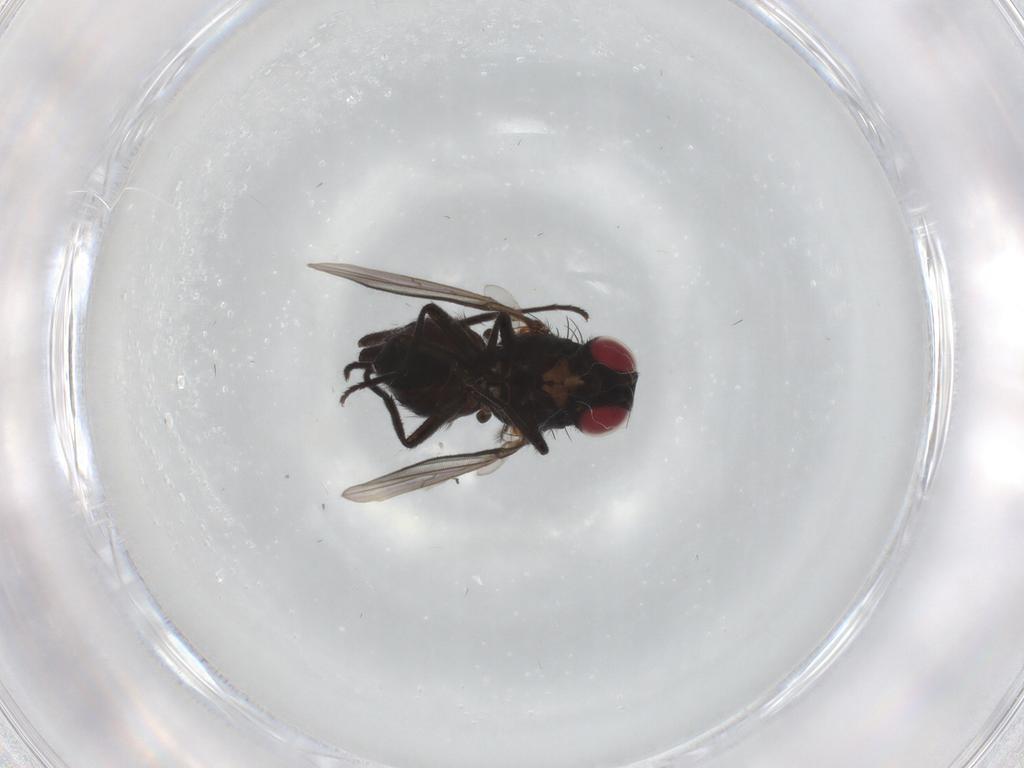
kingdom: Animalia
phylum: Arthropoda
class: Insecta
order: Diptera
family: Agromyzidae
